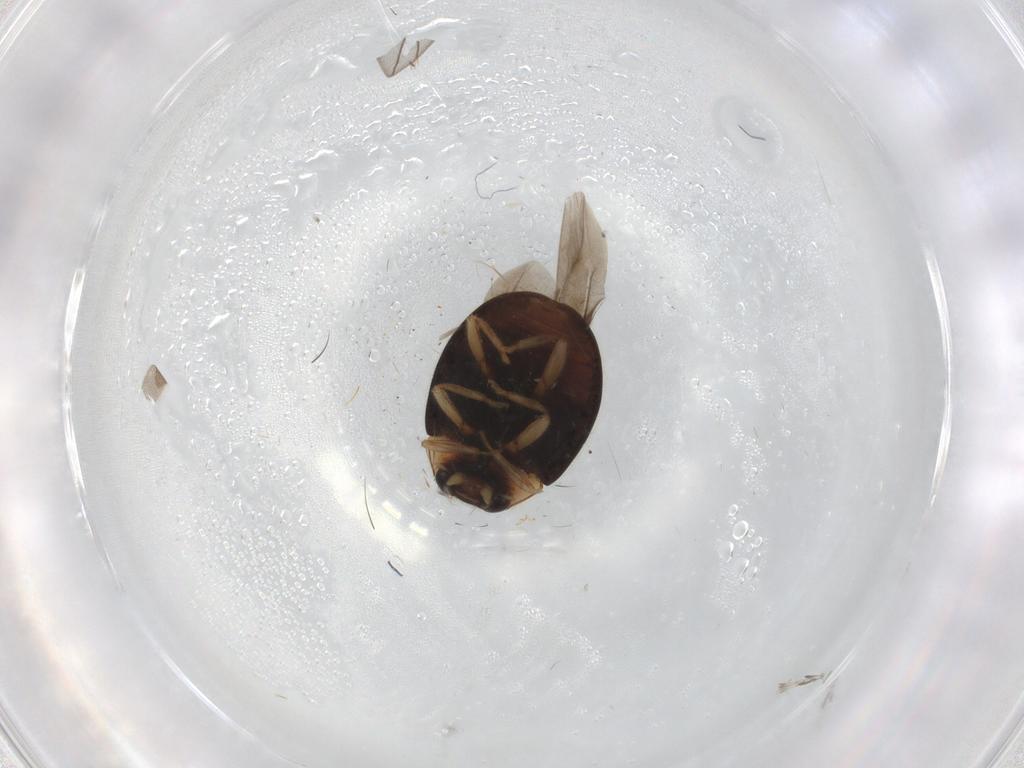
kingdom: Animalia
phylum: Arthropoda
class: Insecta
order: Coleoptera
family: Coccinellidae
